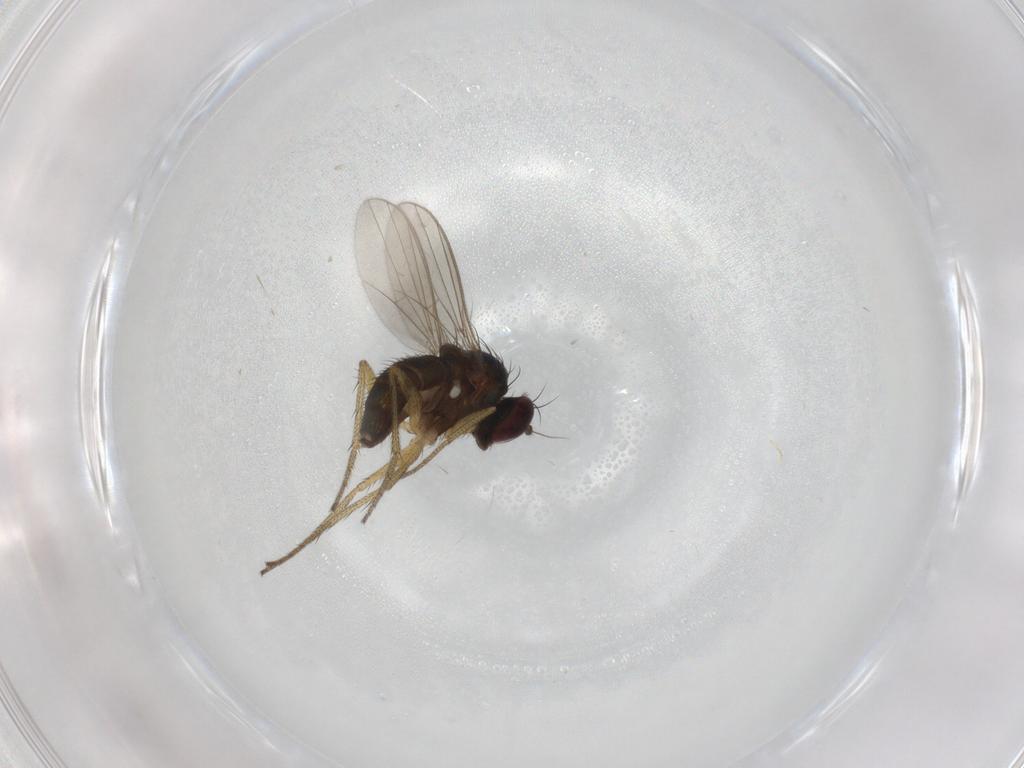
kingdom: Animalia
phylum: Arthropoda
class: Insecta
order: Diptera
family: Dolichopodidae
